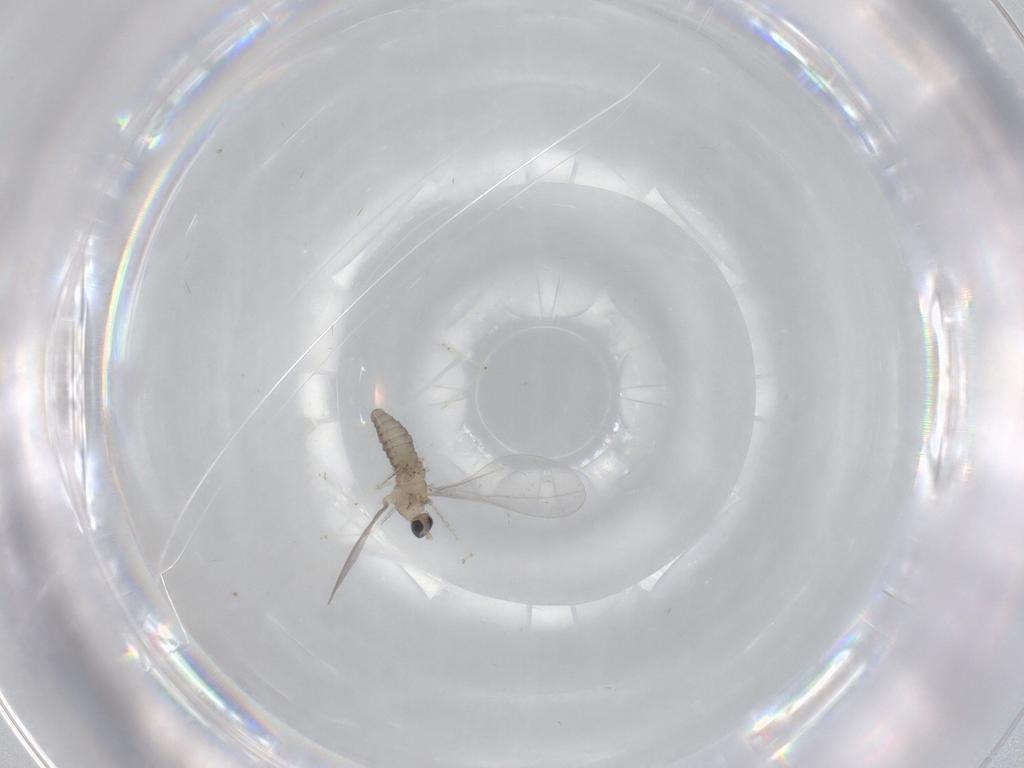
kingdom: Animalia
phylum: Arthropoda
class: Insecta
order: Diptera
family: Cecidomyiidae
